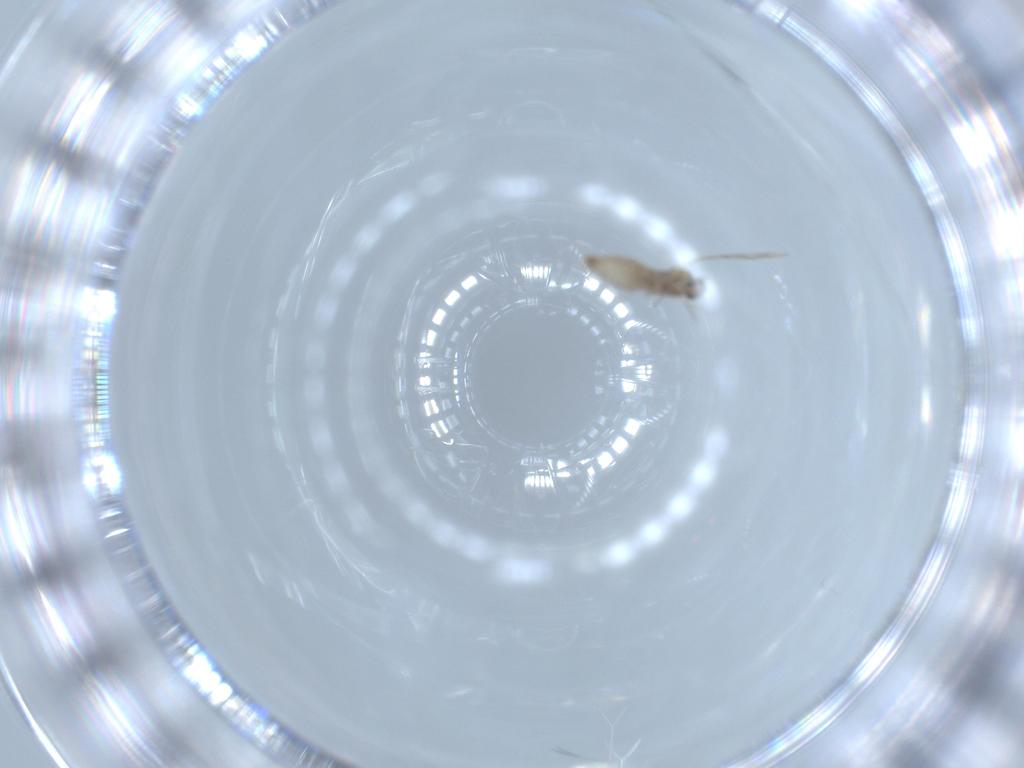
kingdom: Animalia
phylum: Arthropoda
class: Insecta
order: Diptera
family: Cecidomyiidae
